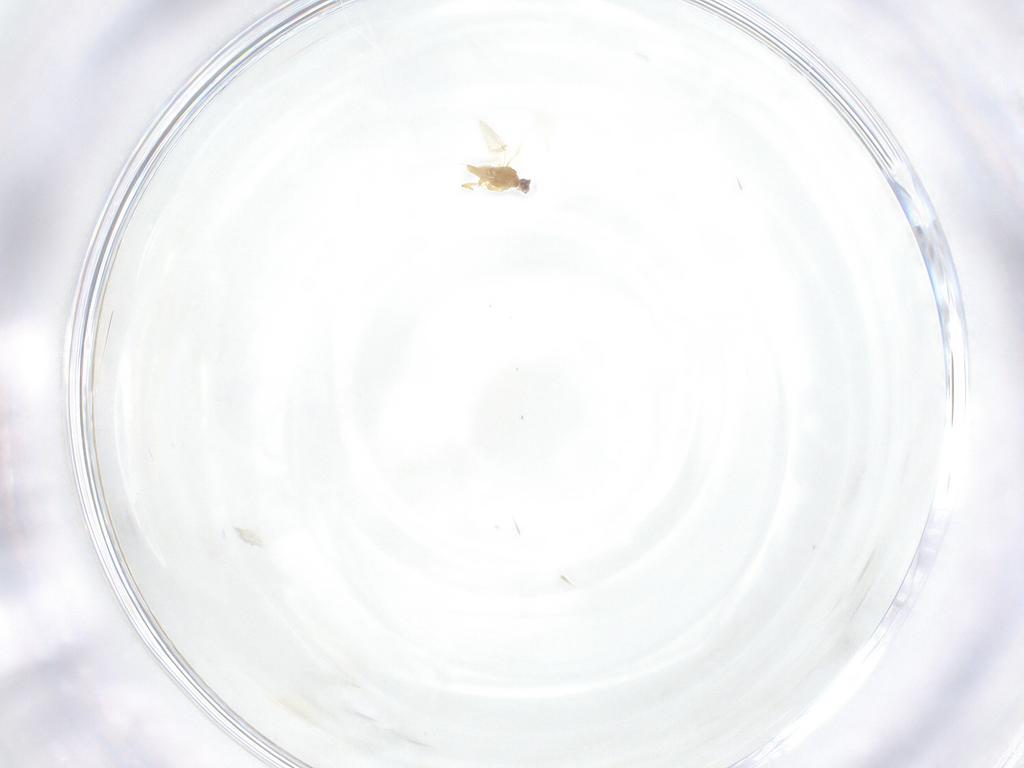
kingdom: Animalia
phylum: Arthropoda
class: Insecta
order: Hemiptera
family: Diaspididae
